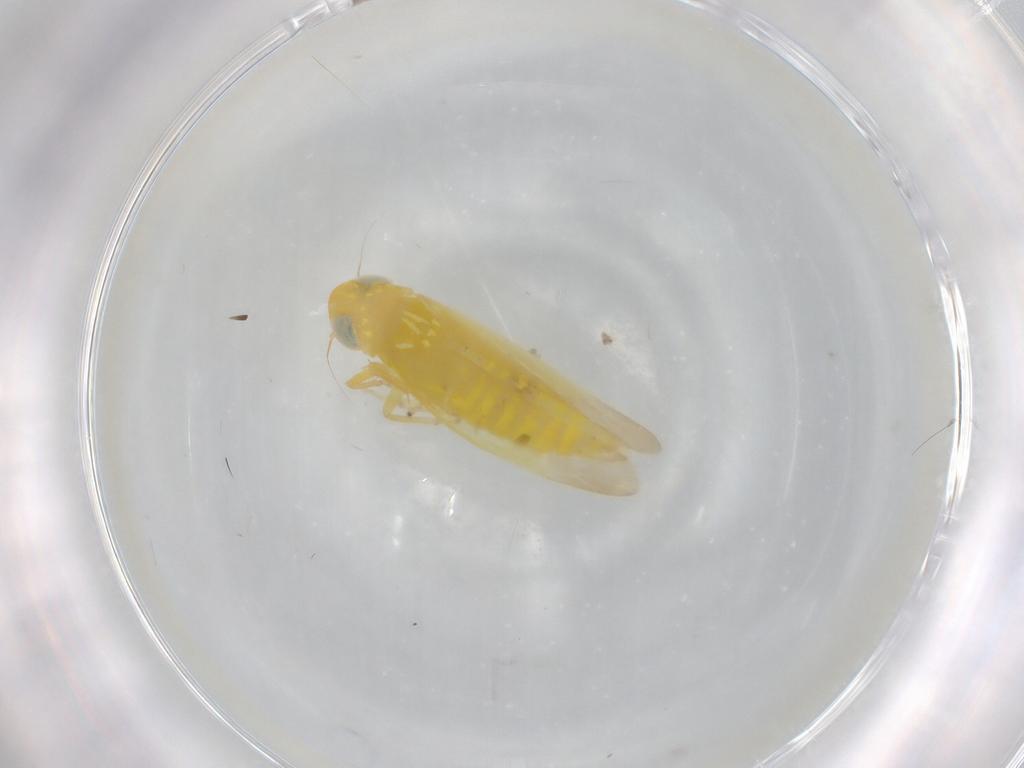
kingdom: Animalia
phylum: Arthropoda
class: Insecta
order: Hemiptera
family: Cicadellidae
